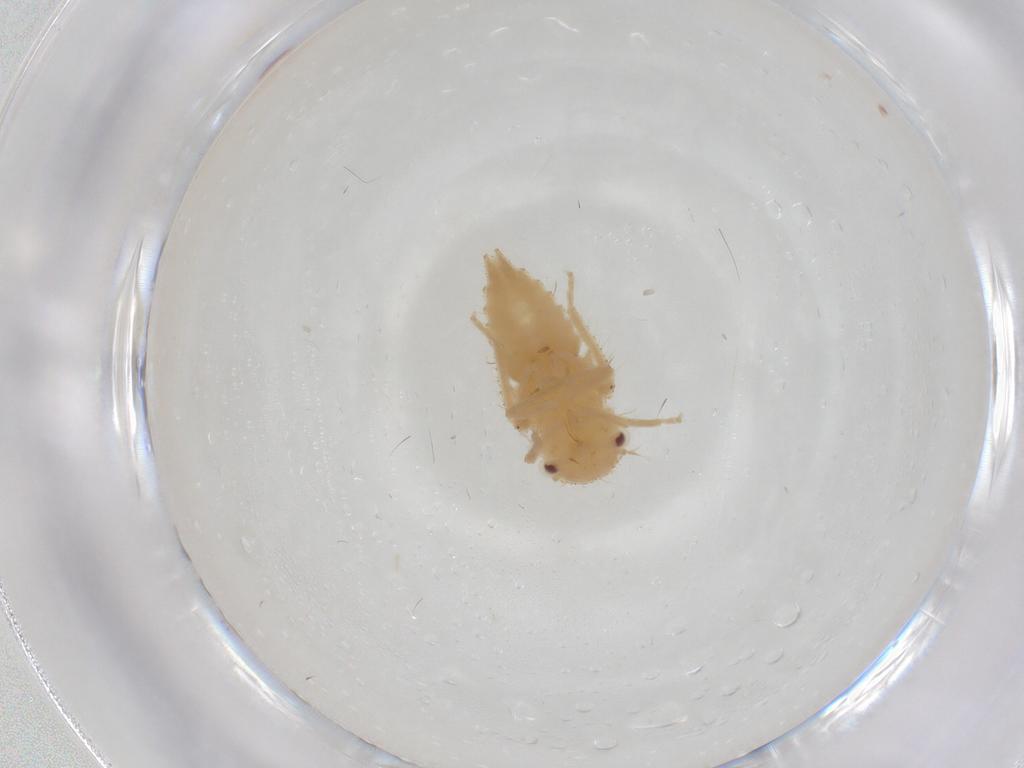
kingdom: Animalia
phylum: Arthropoda
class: Insecta
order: Hemiptera
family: Cicadellidae
